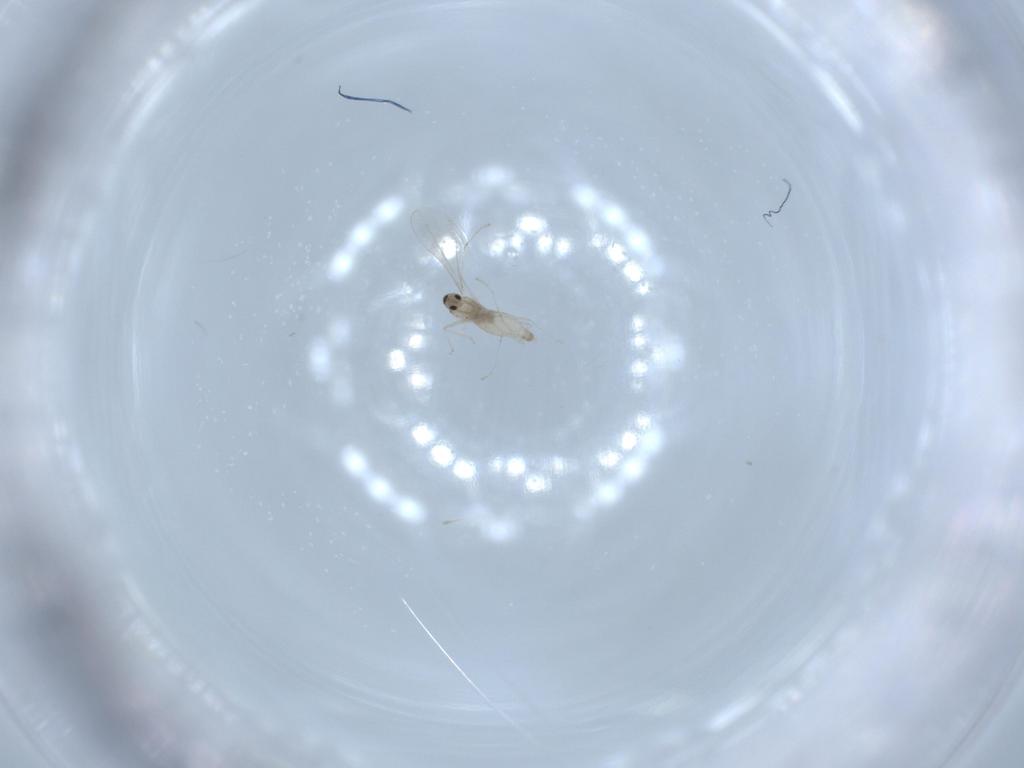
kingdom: Animalia
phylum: Arthropoda
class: Insecta
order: Diptera
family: Cecidomyiidae
